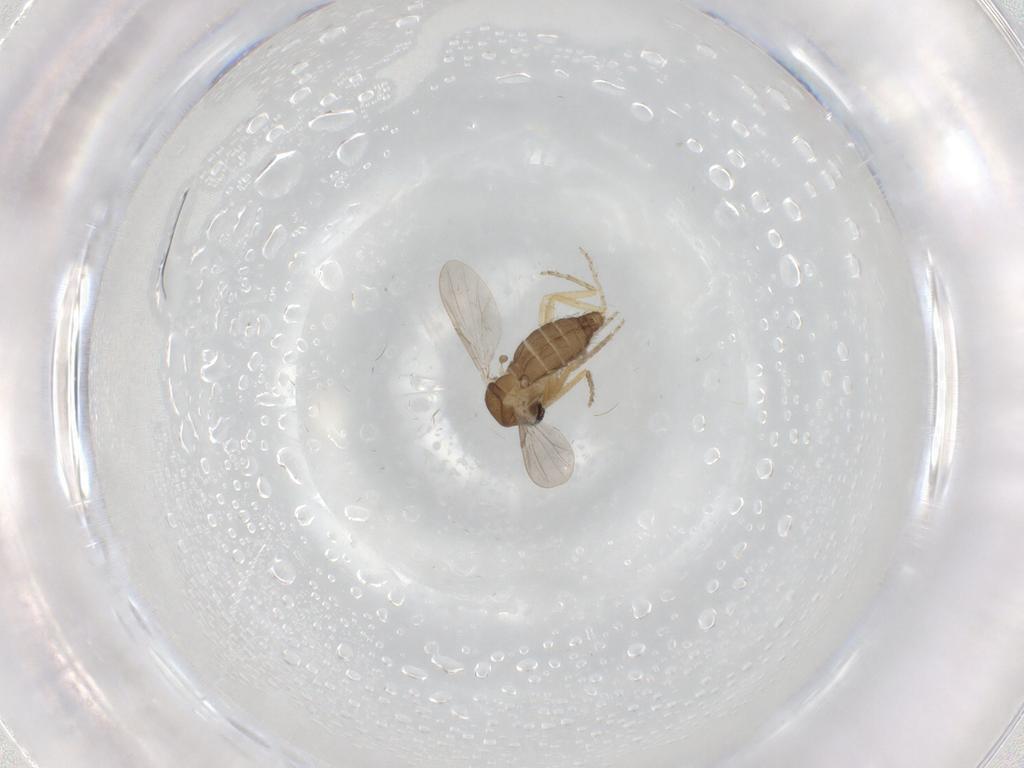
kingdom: Animalia
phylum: Arthropoda
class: Insecta
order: Diptera
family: Ceratopogonidae
